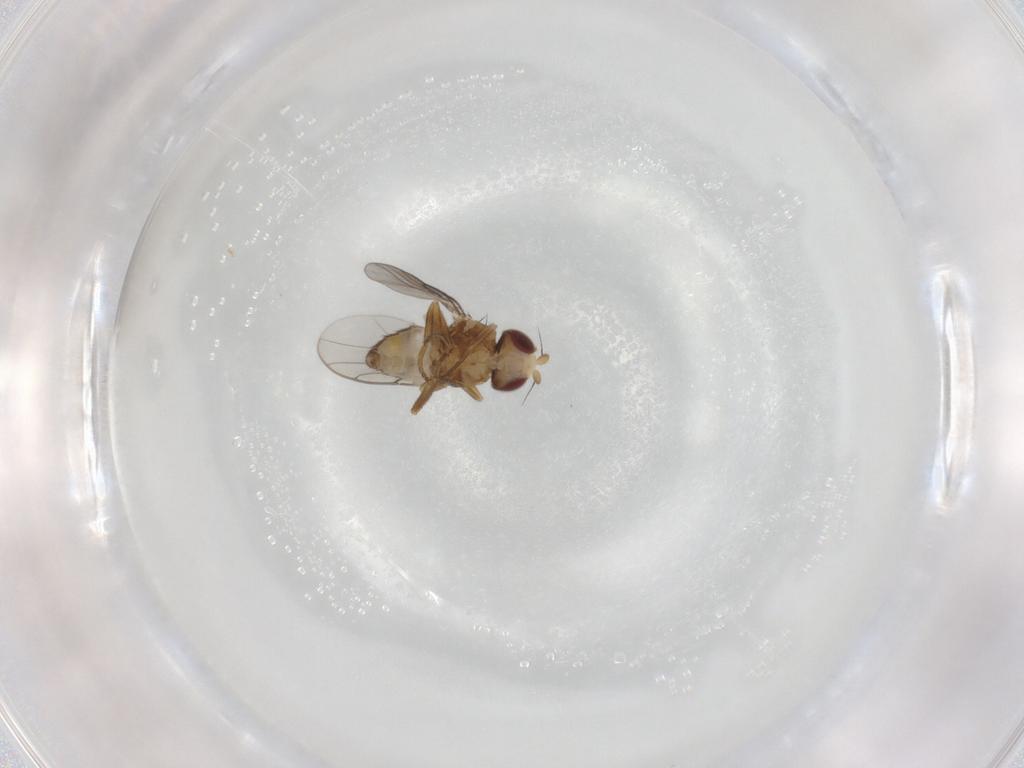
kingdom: Animalia
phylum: Arthropoda
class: Insecta
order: Diptera
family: Chloropidae
